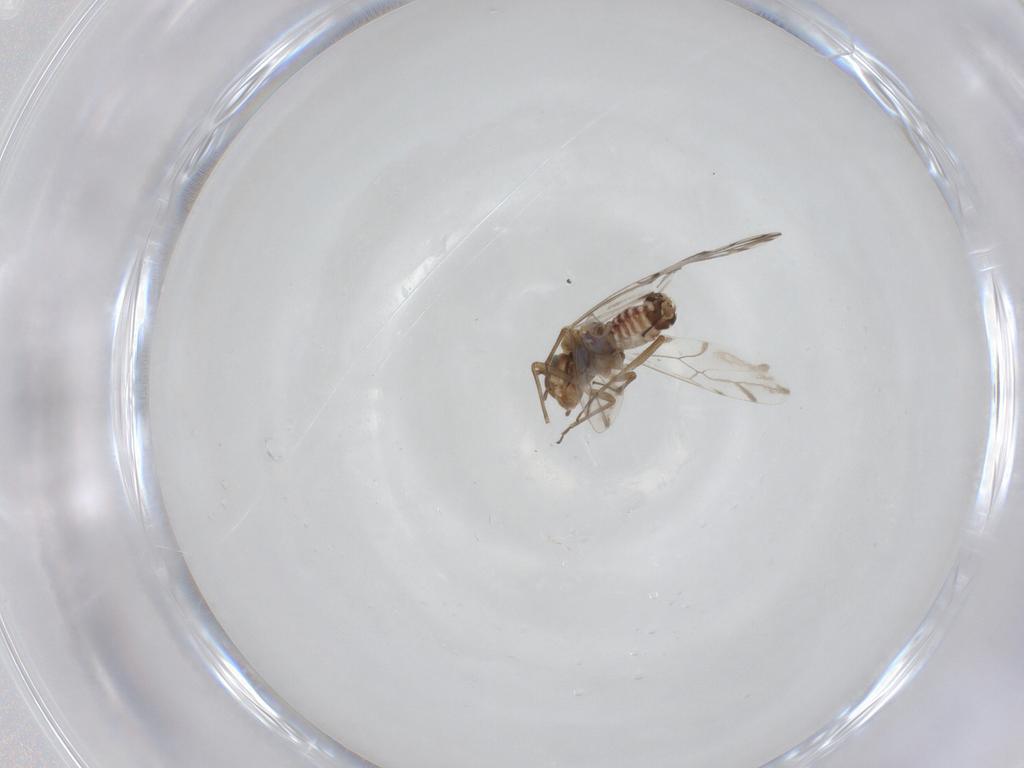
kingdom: Animalia
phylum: Arthropoda
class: Insecta
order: Psocodea
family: Lachesillidae
